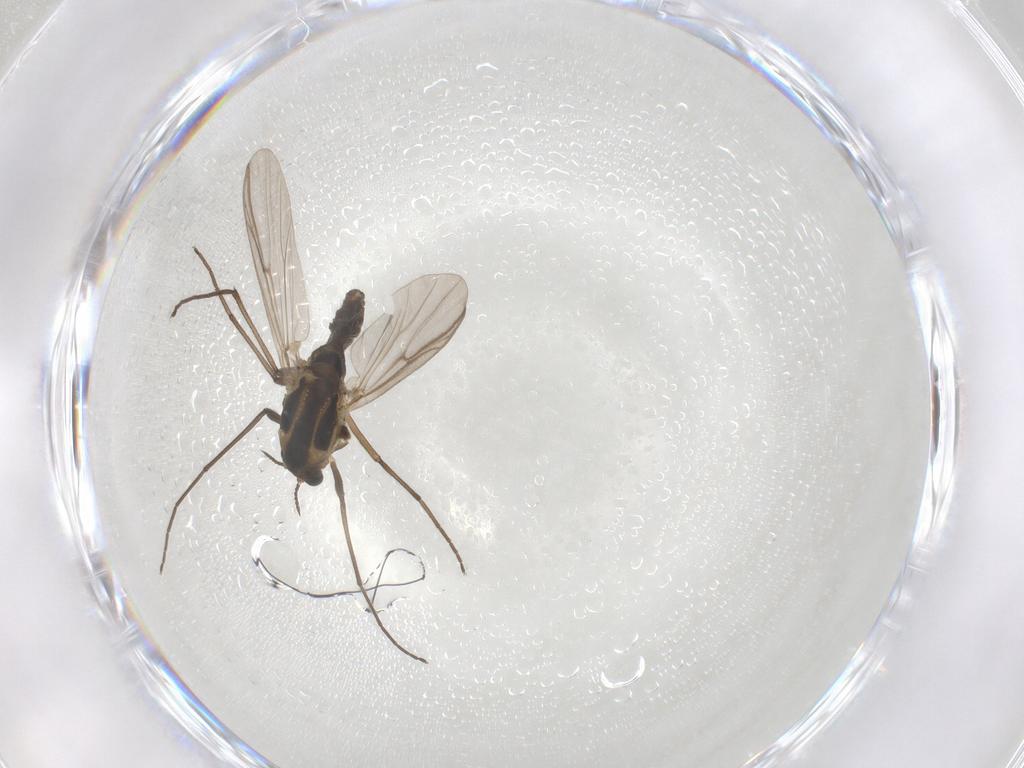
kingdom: Animalia
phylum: Arthropoda
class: Insecta
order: Diptera
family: Chironomidae
